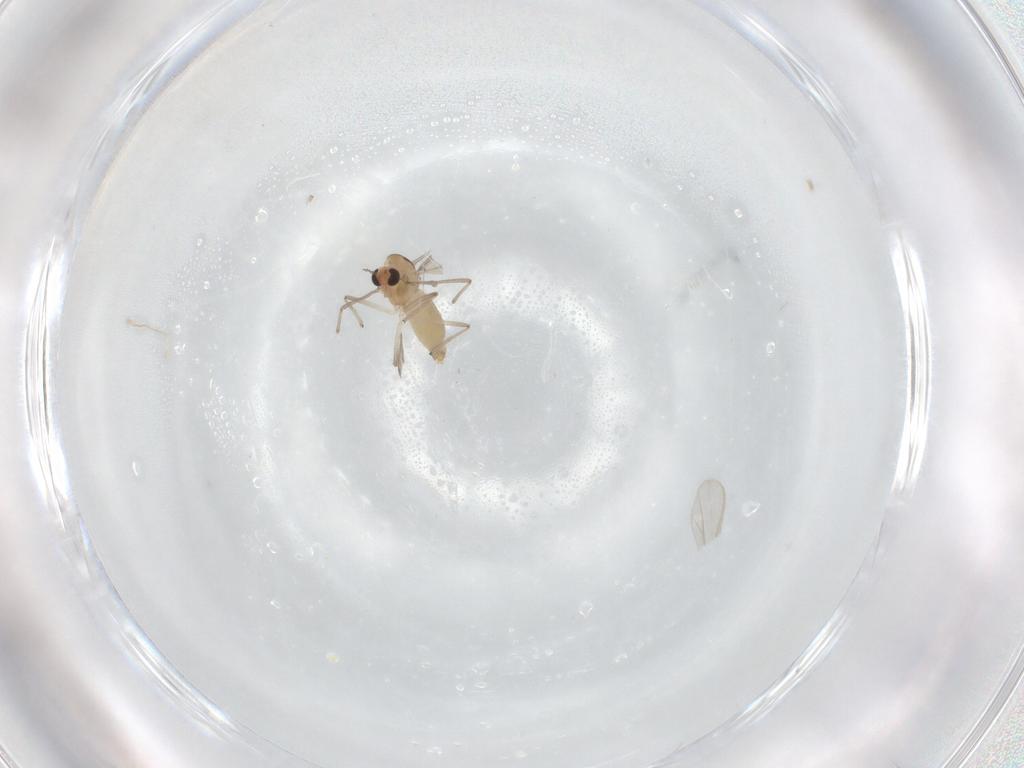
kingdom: Animalia
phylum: Arthropoda
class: Insecta
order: Diptera
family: Chironomidae
